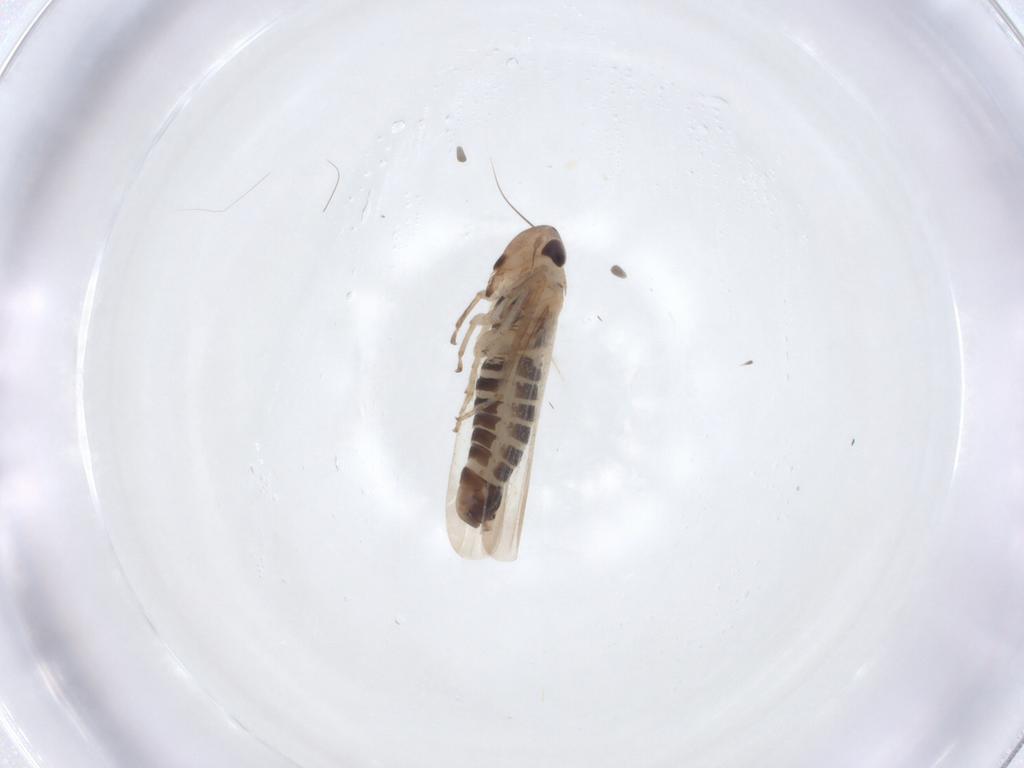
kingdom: Animalia
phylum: Arthropoda
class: Insecta
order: Hemiptera
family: Cicadellidae
